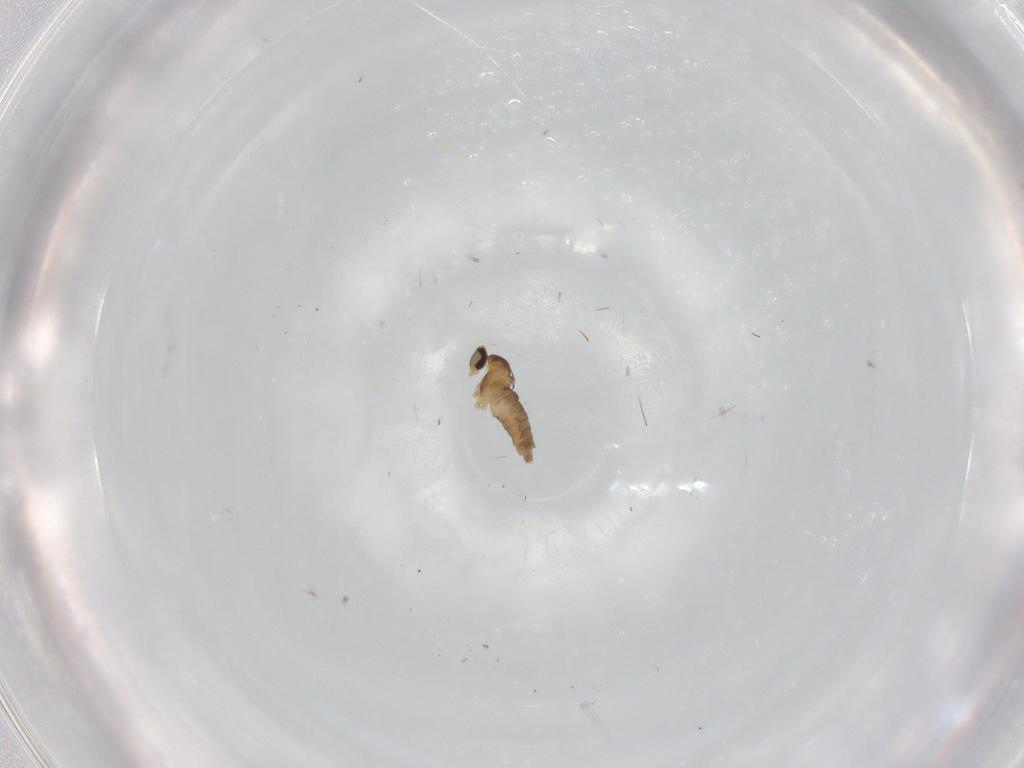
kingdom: Animalia
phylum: Arthropoda
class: Insecta
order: Diptera
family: Cecidomyiidae
